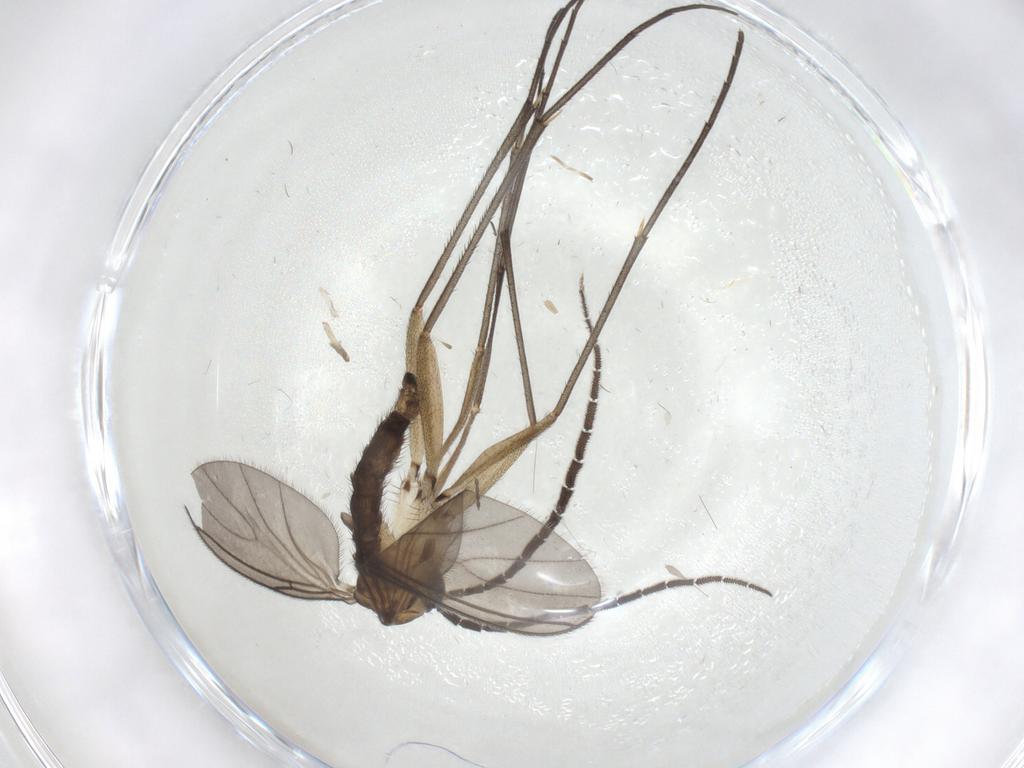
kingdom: Animalia
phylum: Arthropoda
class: Insecta
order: Diptera
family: Sciaridae
